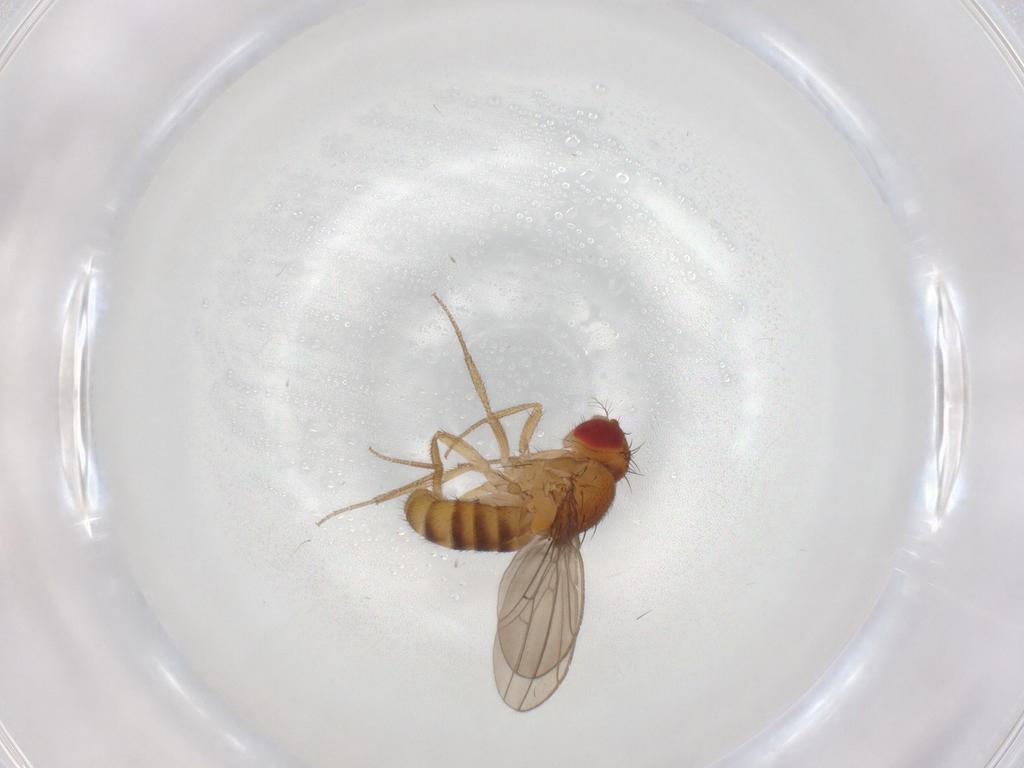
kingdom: Animalia
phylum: Arthropoda
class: Insecta
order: Diptera
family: Drosophilidae
